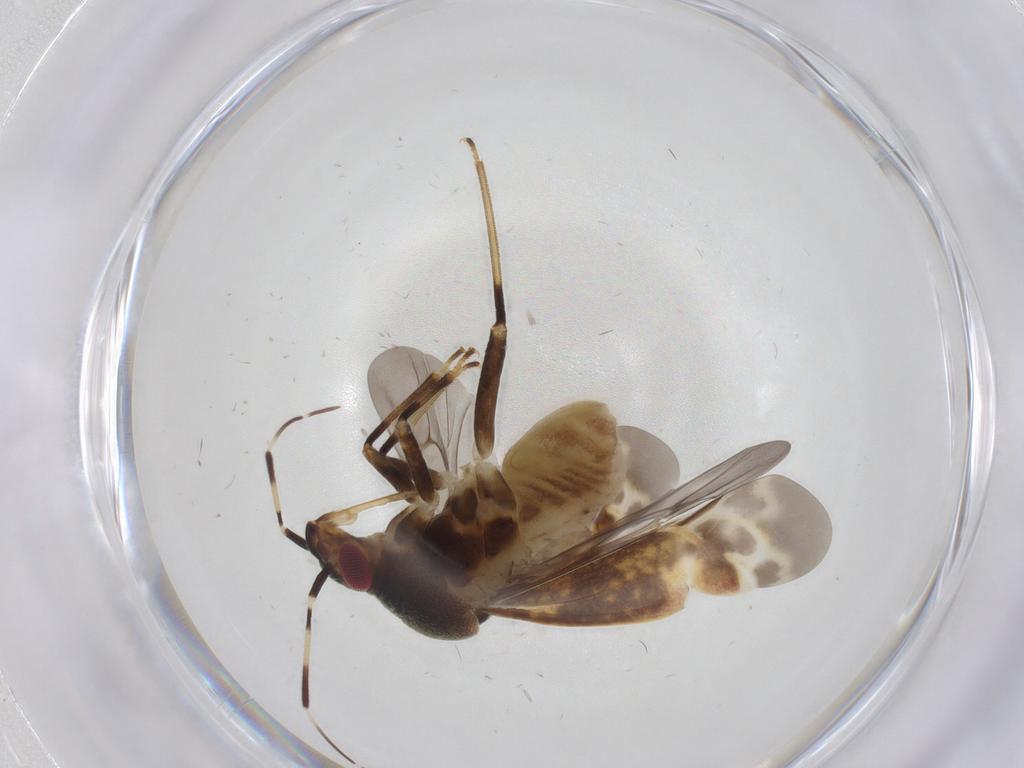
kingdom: Animalia
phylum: Arthropoda
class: Insecta
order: Hemiptera
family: Miridae
